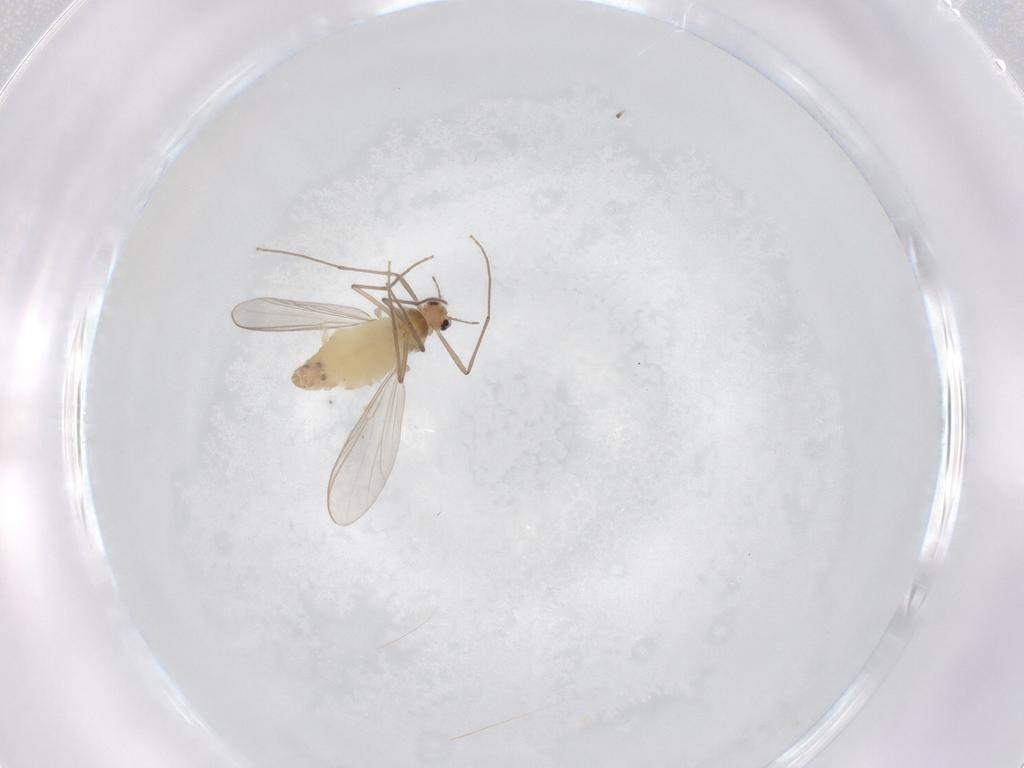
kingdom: Animalia
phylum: Arthropoda
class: Insecta
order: Diptera
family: Chironomidae
